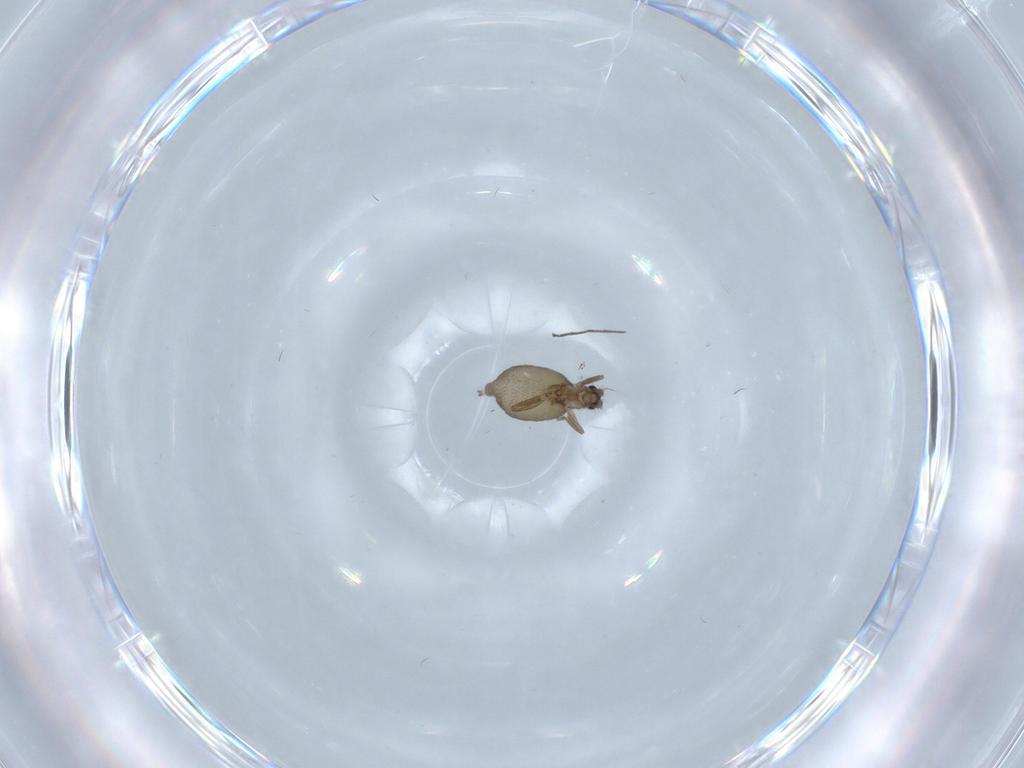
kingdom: Animalia
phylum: Arthropoda
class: Insecta
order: Diptera
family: Phoridae
